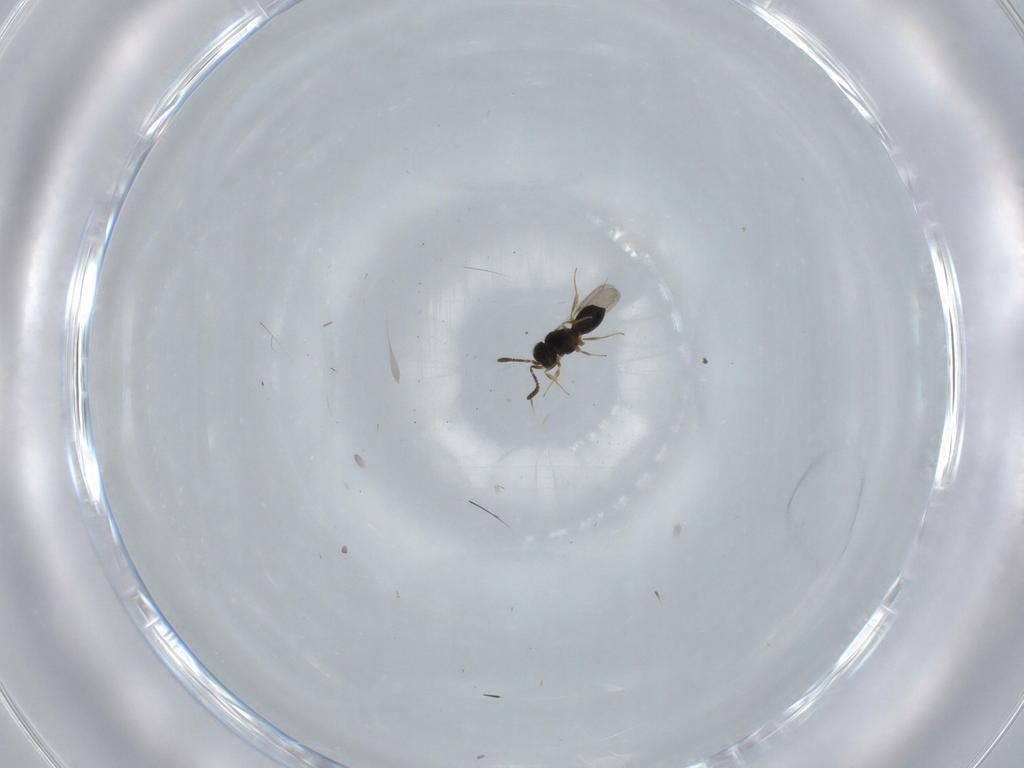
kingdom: Animalia
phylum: Arthropoda
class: Insecta
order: Hymenoptera
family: Scelionidae
